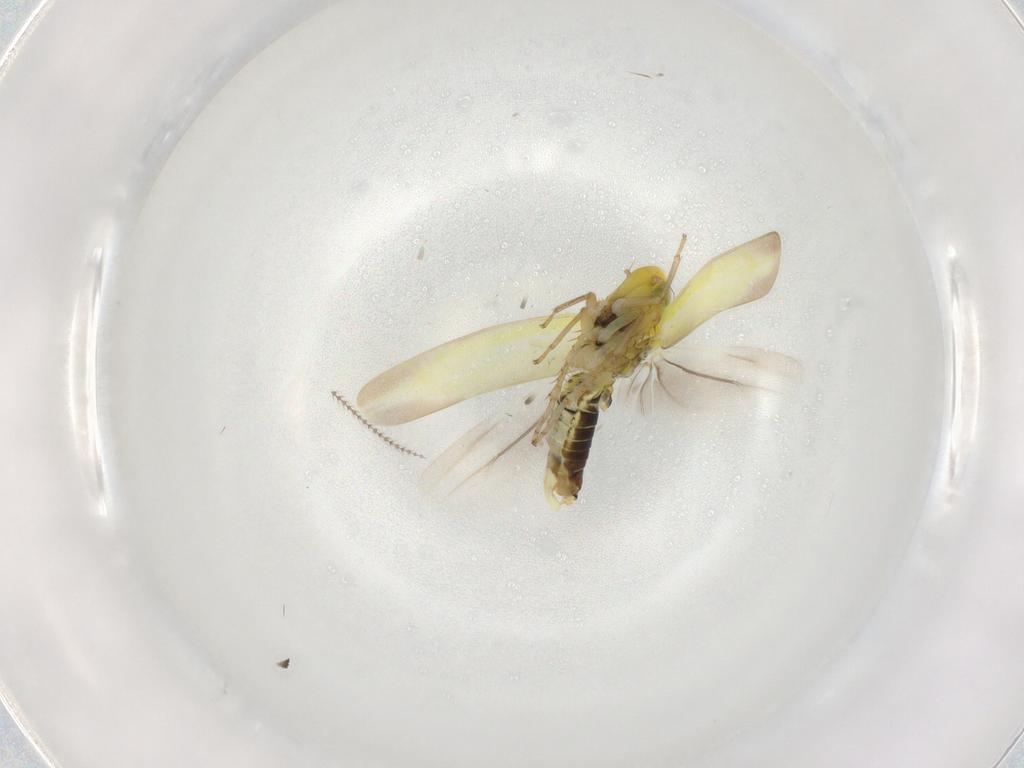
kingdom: Animalia
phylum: Arthropoda
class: Insecta
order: Hemiptera
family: Cicadellidae
